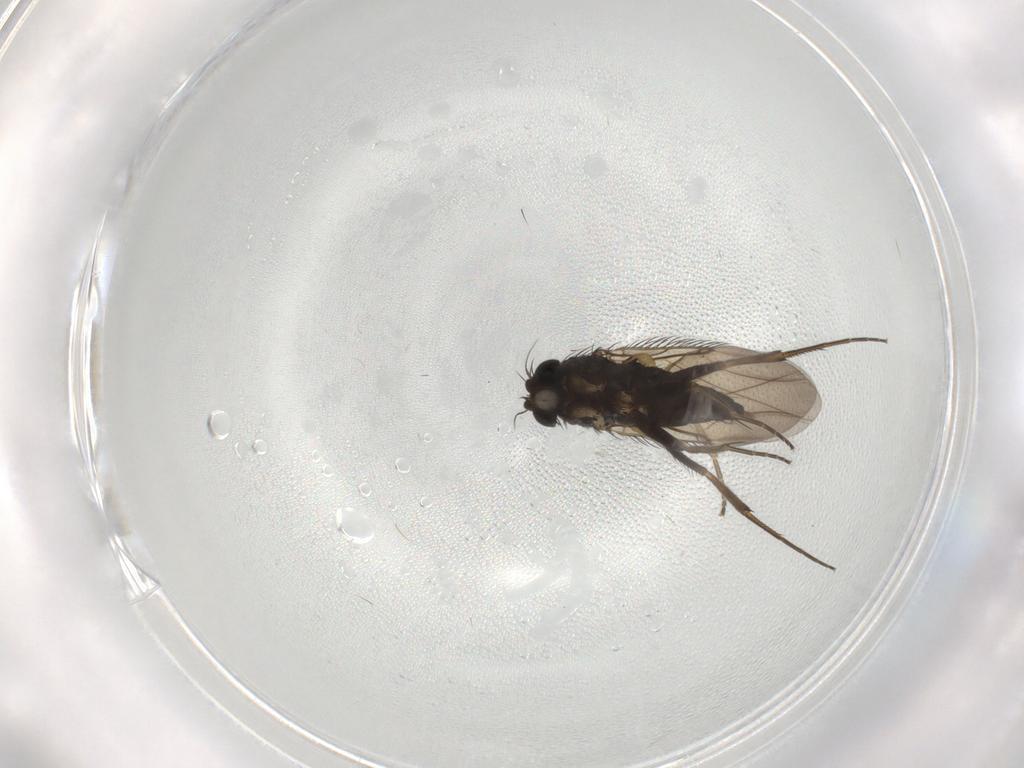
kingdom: Animalia
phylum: Arthropoda
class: Insecta
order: Diptera
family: Phoridae
